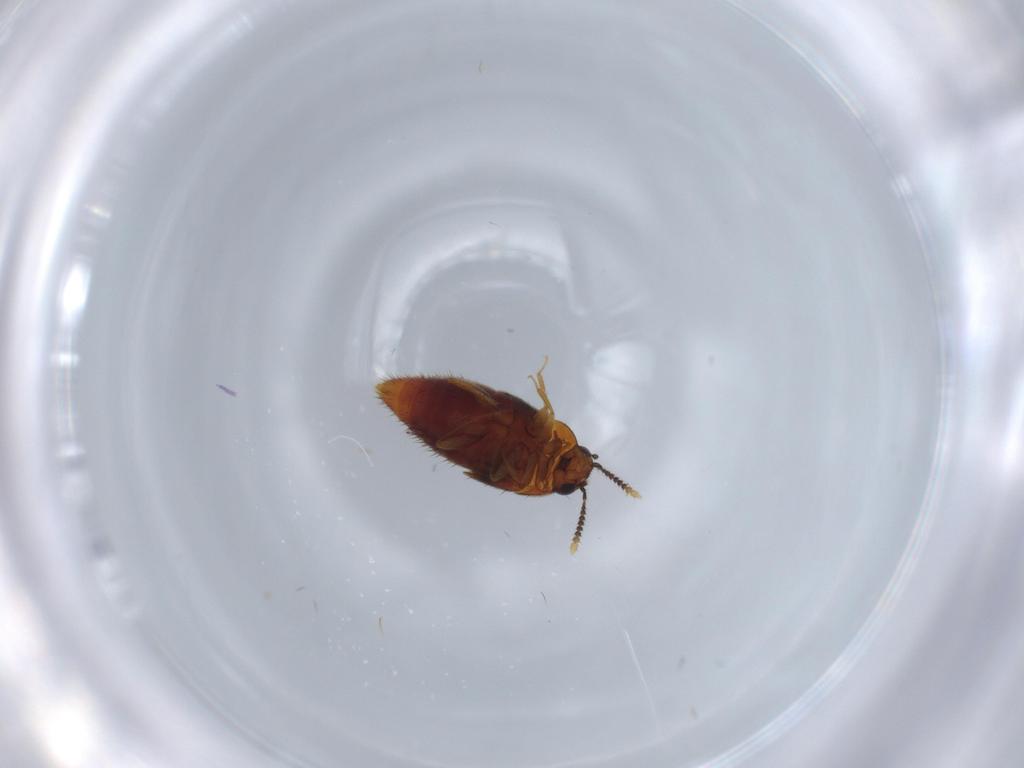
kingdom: Animalia
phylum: Arthropoda
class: Insecta
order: Coleoptera
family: Staphylinidae
